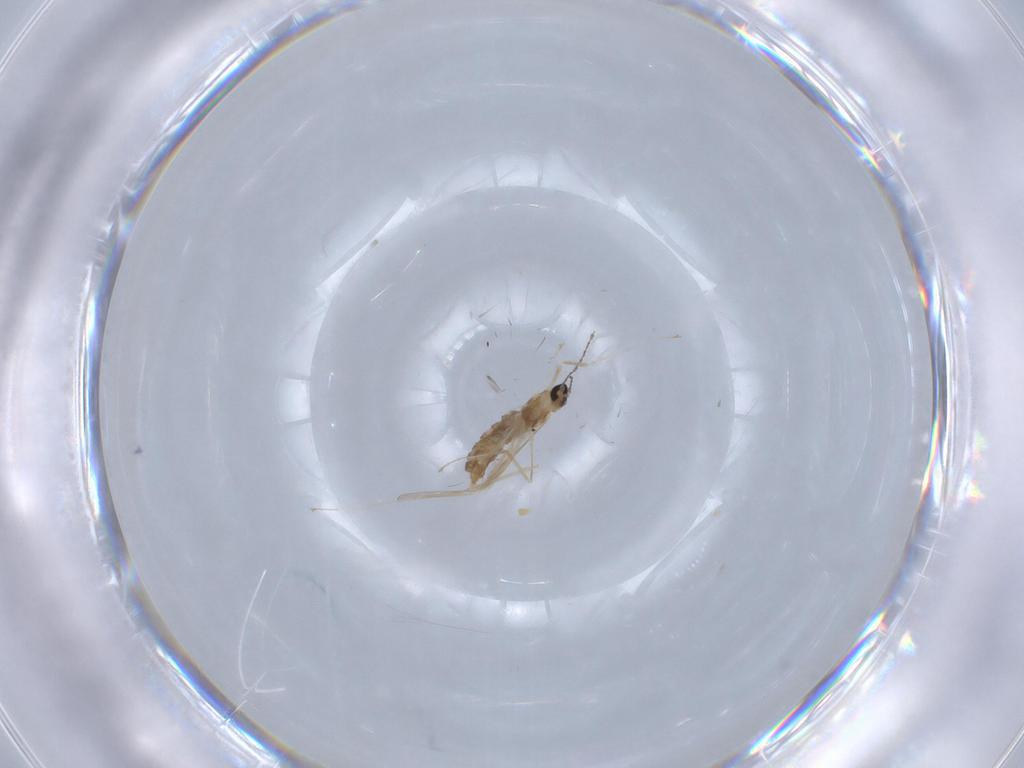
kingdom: Animalia
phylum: Arthropoda
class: Insecta
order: Diptera
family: Cecidomyiidae
